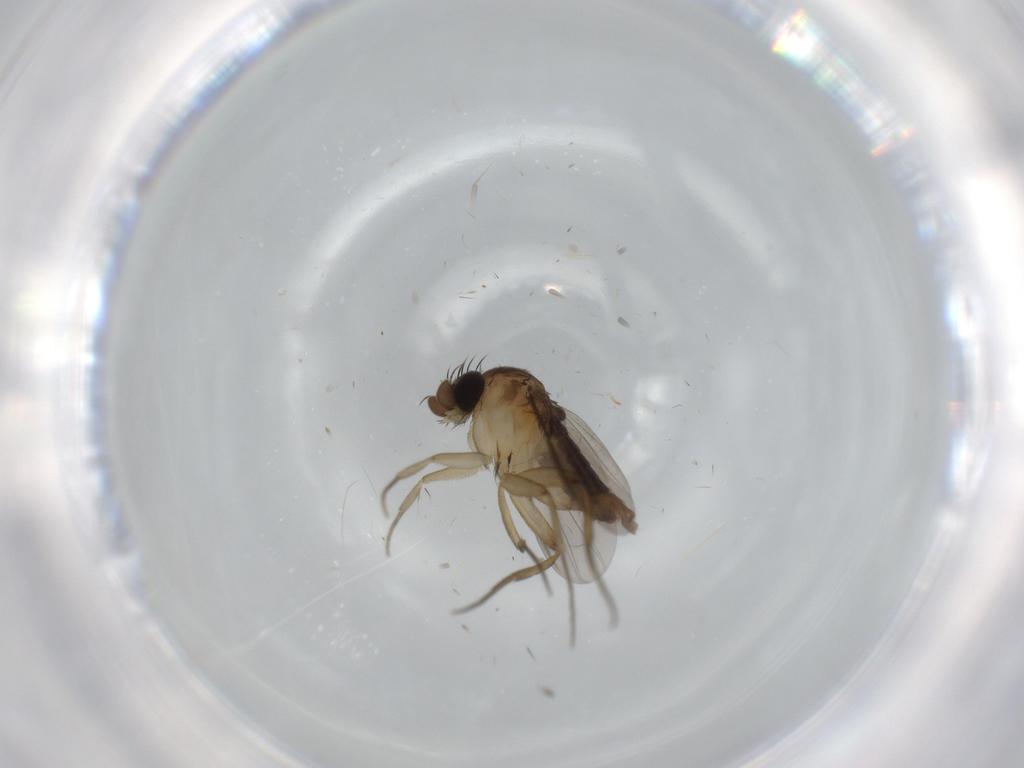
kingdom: Animalia
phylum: Arthropoda
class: Insecta
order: Diptera
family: Phoridae
